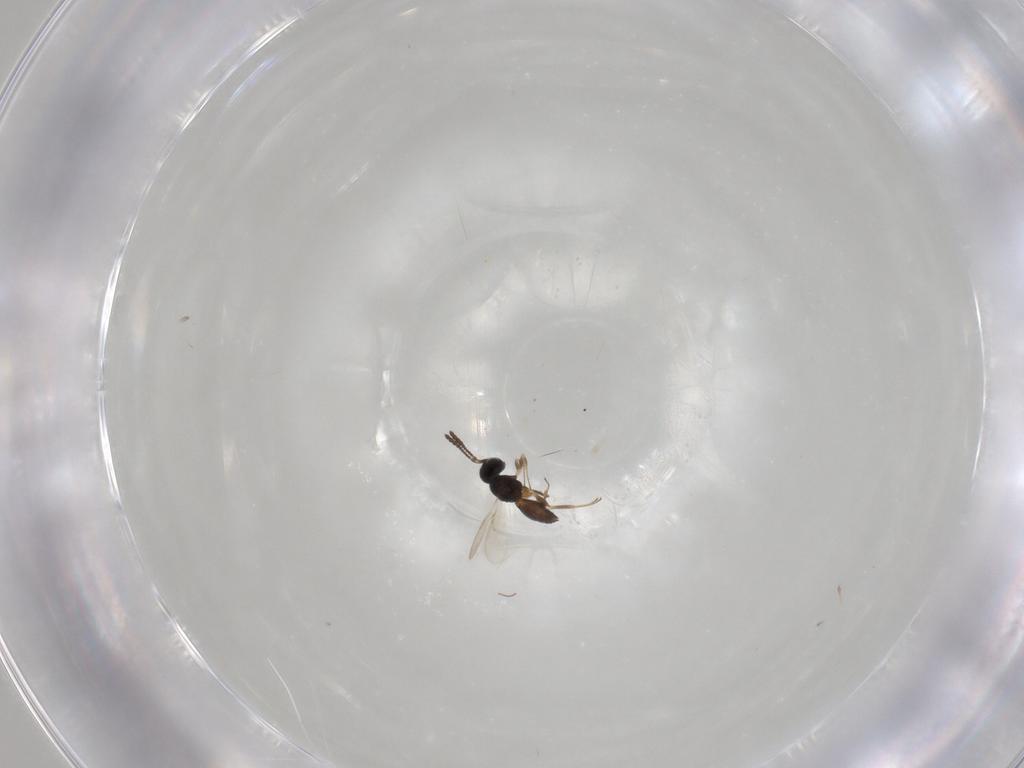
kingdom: Animalia
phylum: Arthropoda
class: Insecta
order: Hymenoptera
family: Scelionidae
